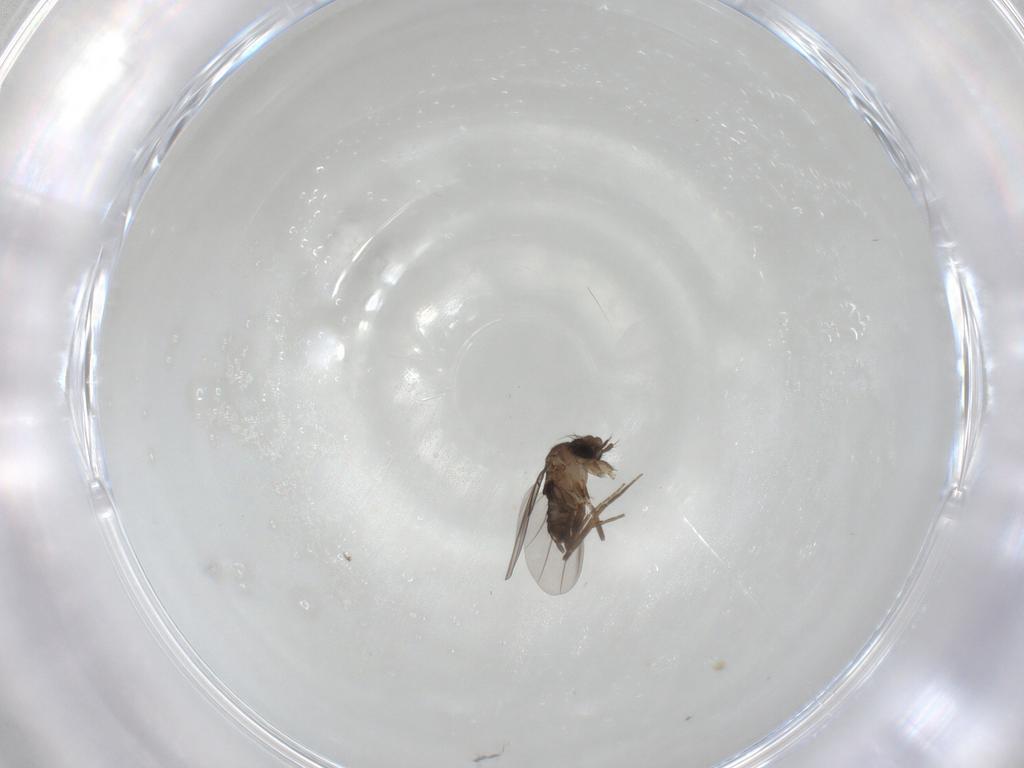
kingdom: Animalia
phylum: Arthropoda
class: Insecta
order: Diptera
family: Phoridae
